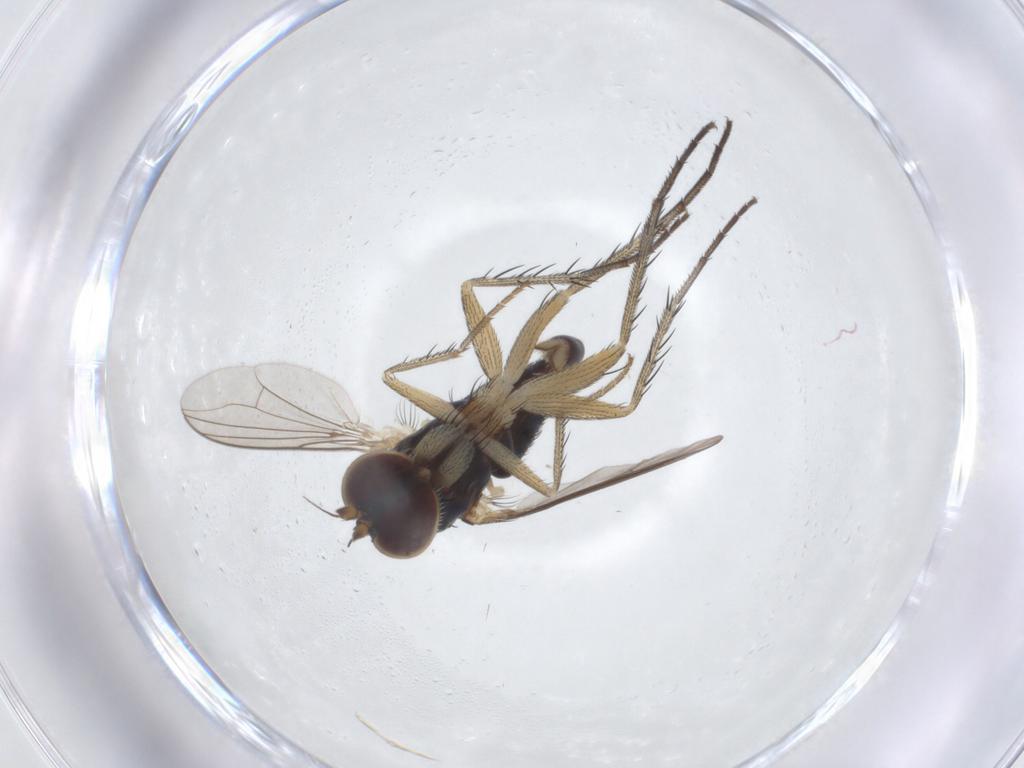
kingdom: Animalia
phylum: Arthropoda
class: Insecta
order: Diptera
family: Dolichopodidae
